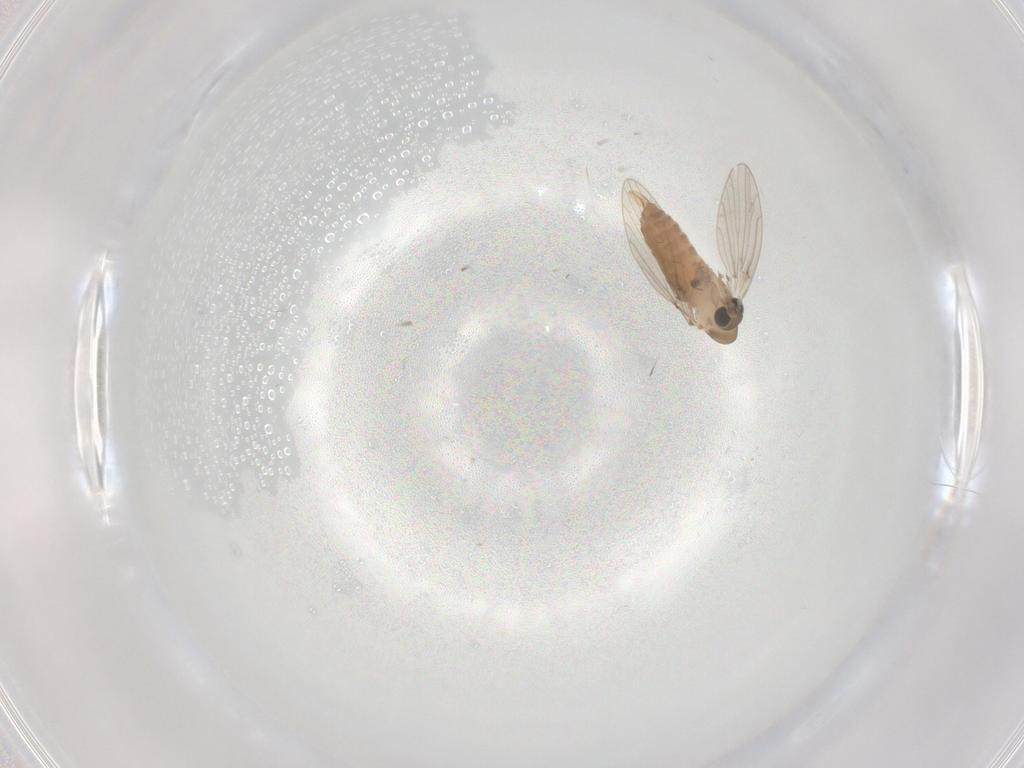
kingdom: Animalia
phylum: Arthropoda
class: Insecta
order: Diptera
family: Psychodidae
